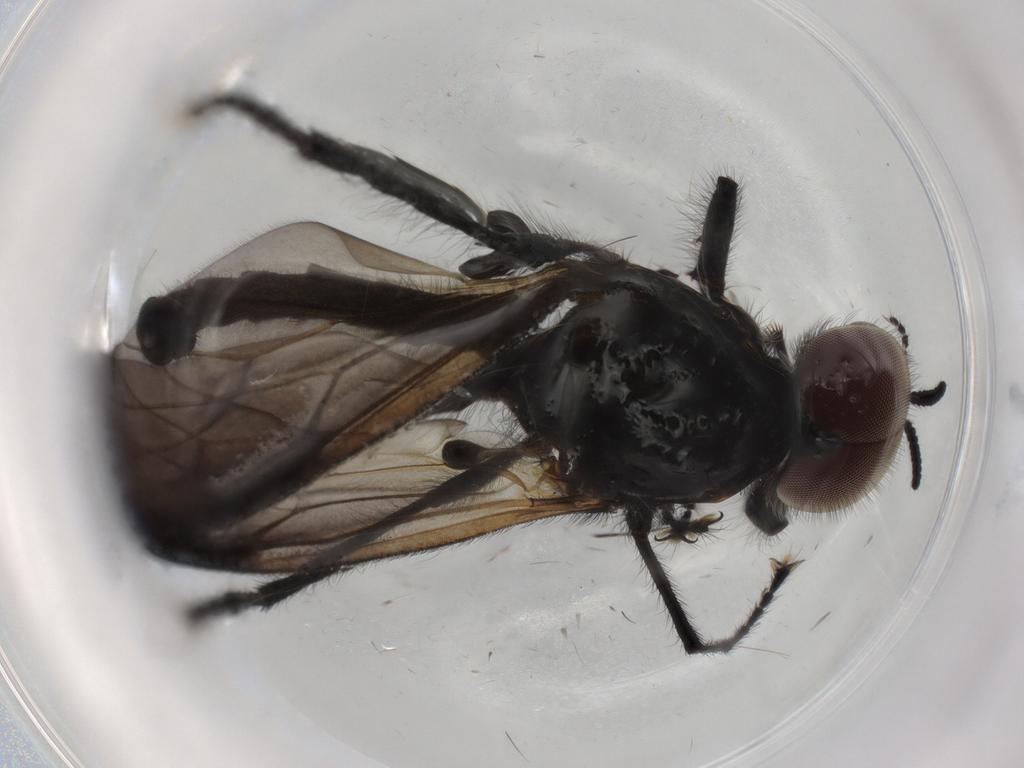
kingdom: Animalia
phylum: Arthropoda
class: Insecta
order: Diptera
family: Bibionidae
